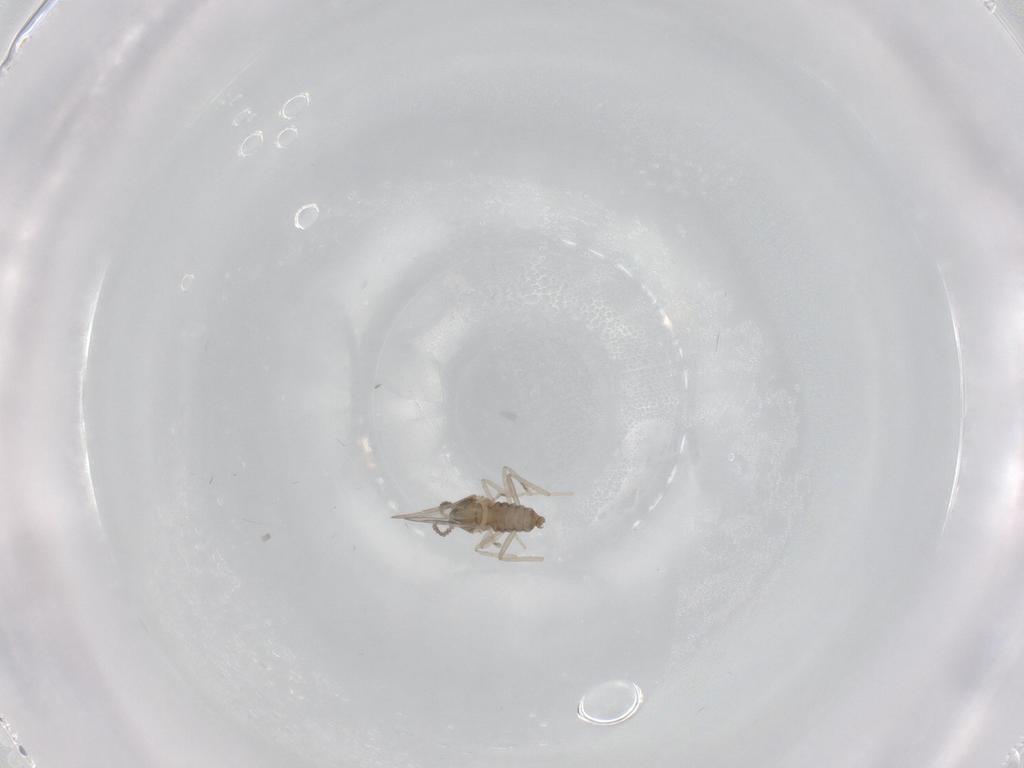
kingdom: Animalia
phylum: Arthropoda
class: Insecta
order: Diptera
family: Cecidomyiidae
